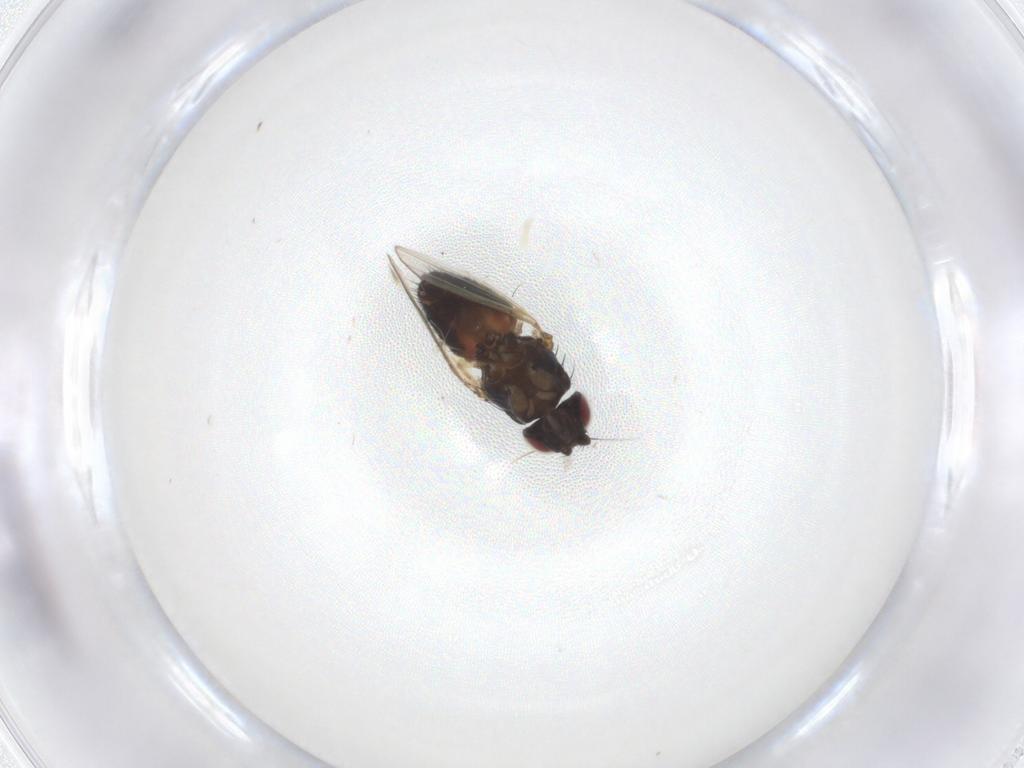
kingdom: Animalia
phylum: Arthropoda
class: Insecta
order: Diptera
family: Milichiidae
